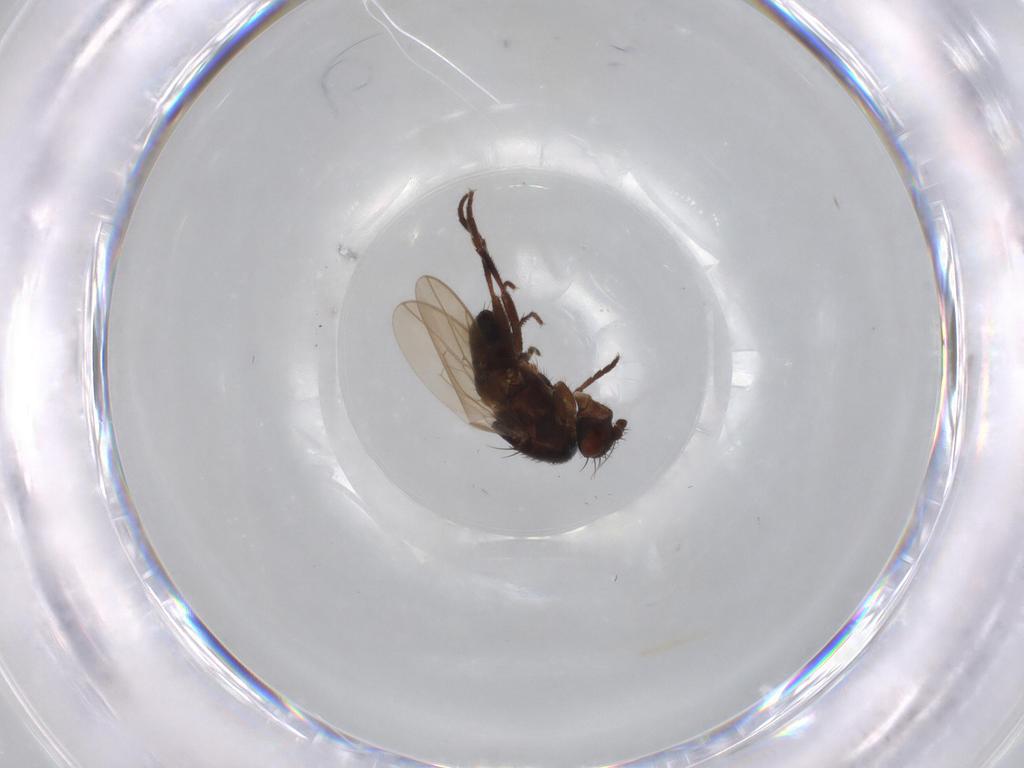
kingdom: Animalia
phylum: Arthropoda
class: Insecta
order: Diptera
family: Sphaeroceridae
